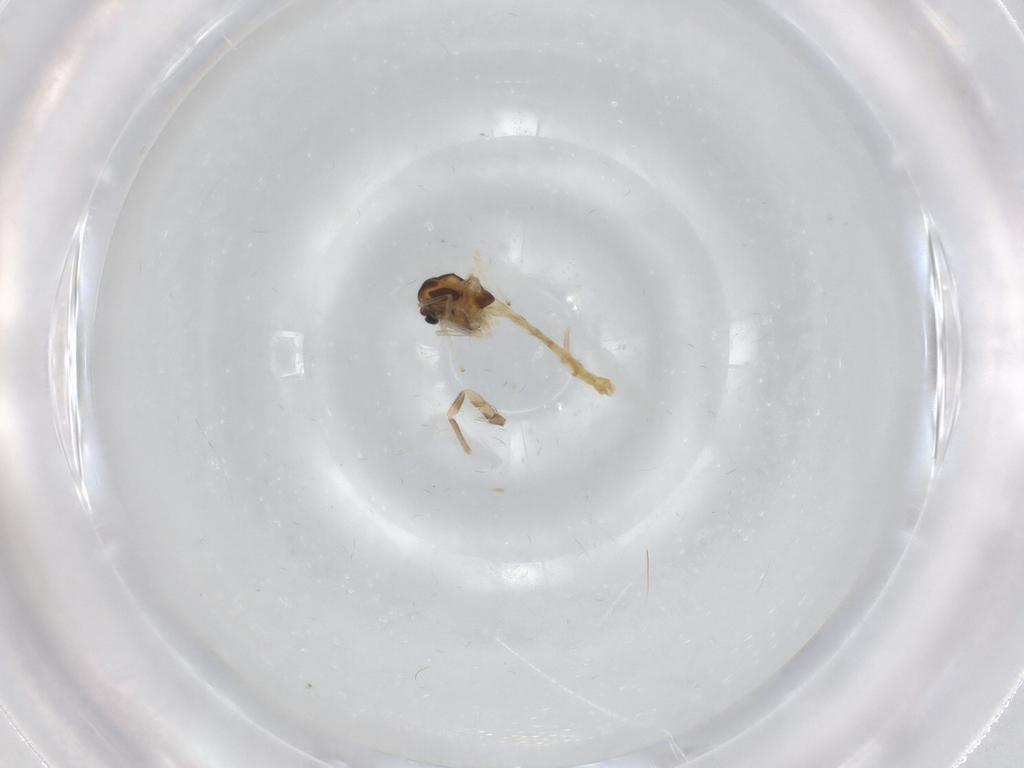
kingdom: Animalia
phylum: Arthropoda
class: Insecta
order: Diptera
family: Chironomidae
